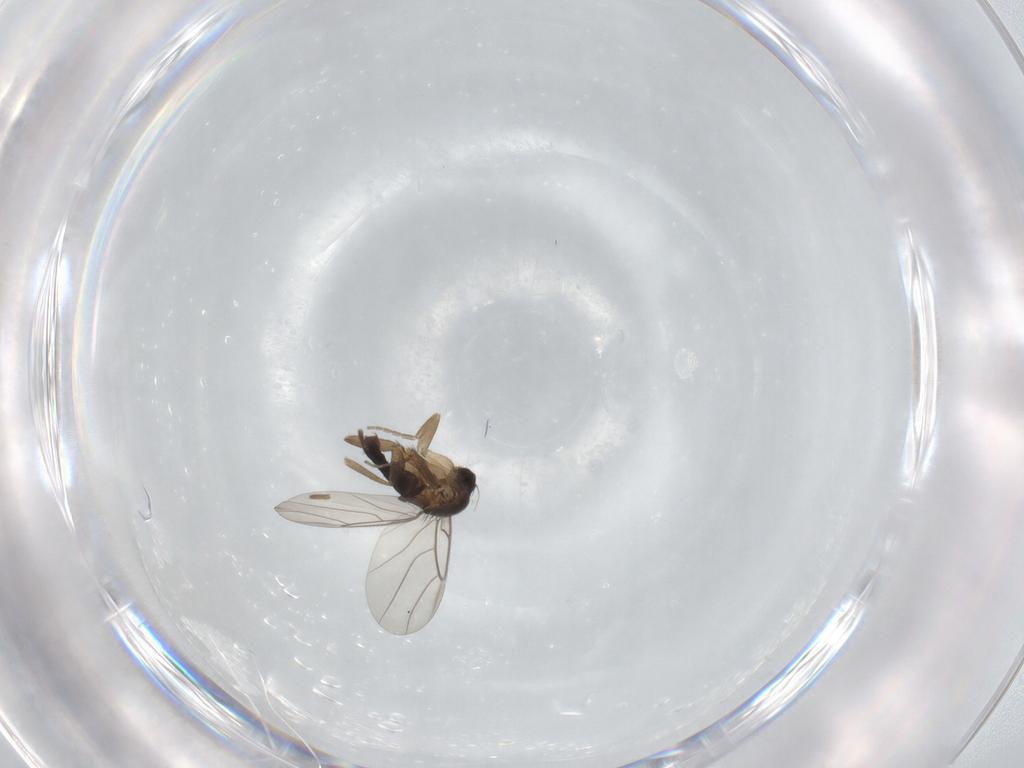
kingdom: Animalia
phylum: Arthropoda
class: Insecta
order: Diptera
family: Phoridae
